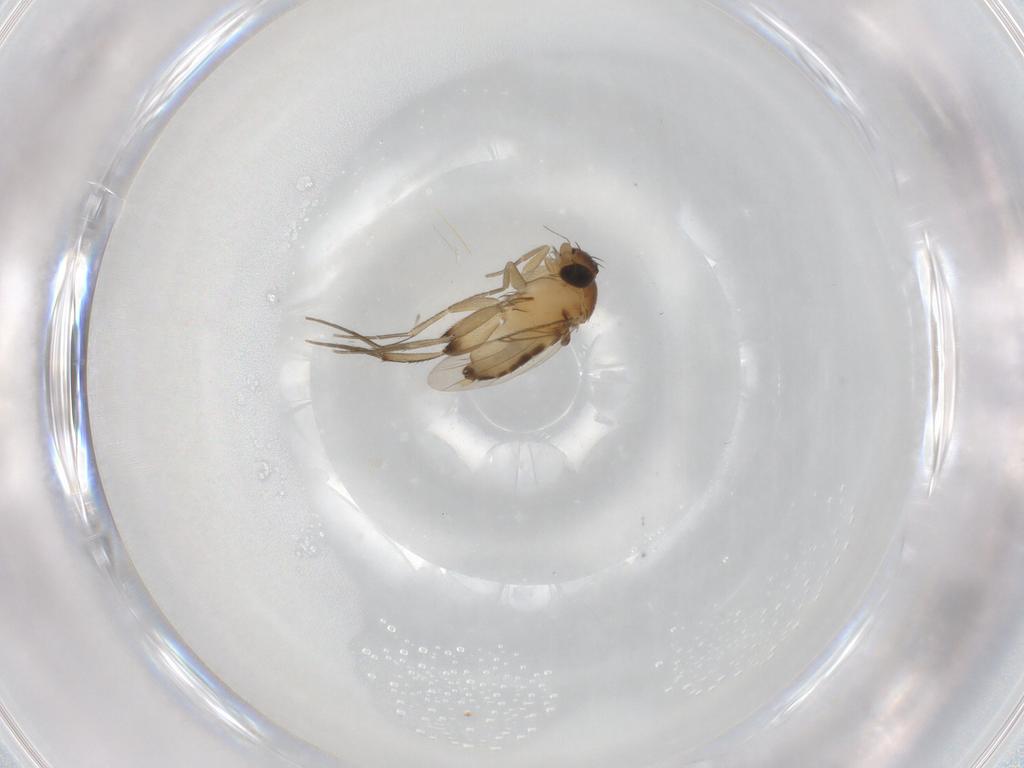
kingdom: Animalia
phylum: Arthropoda
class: Insecta
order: Diptera
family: Phoridae
